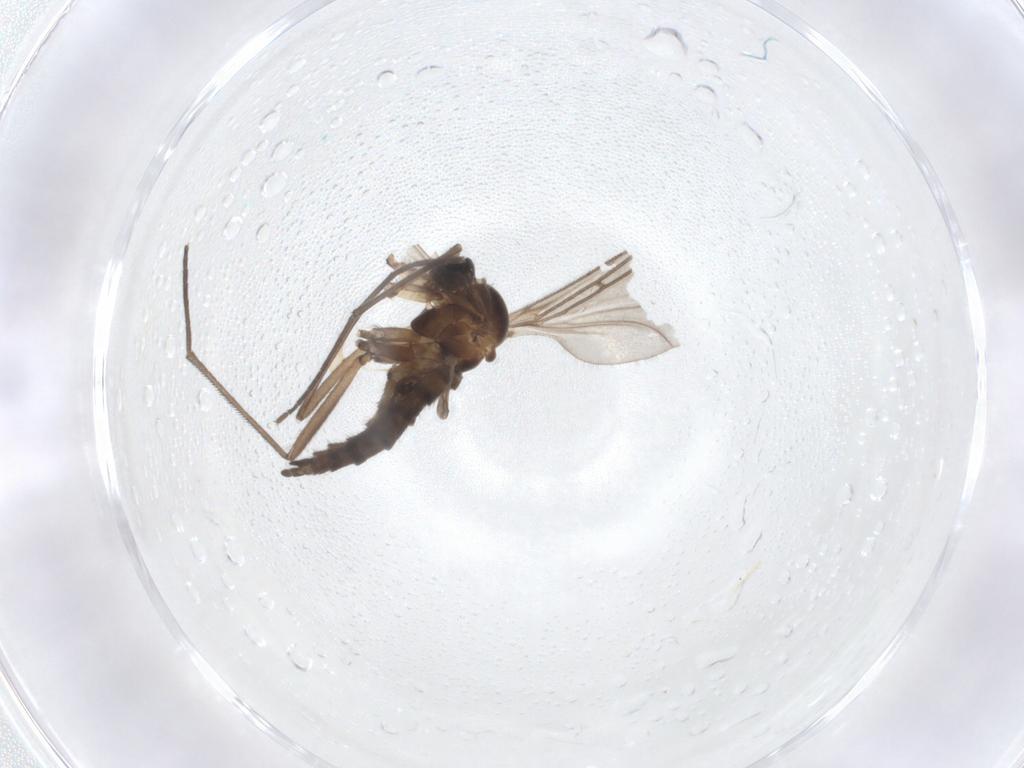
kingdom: Animalia
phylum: Arthropoda
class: Insecta
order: Diptera
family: Sciaridae
